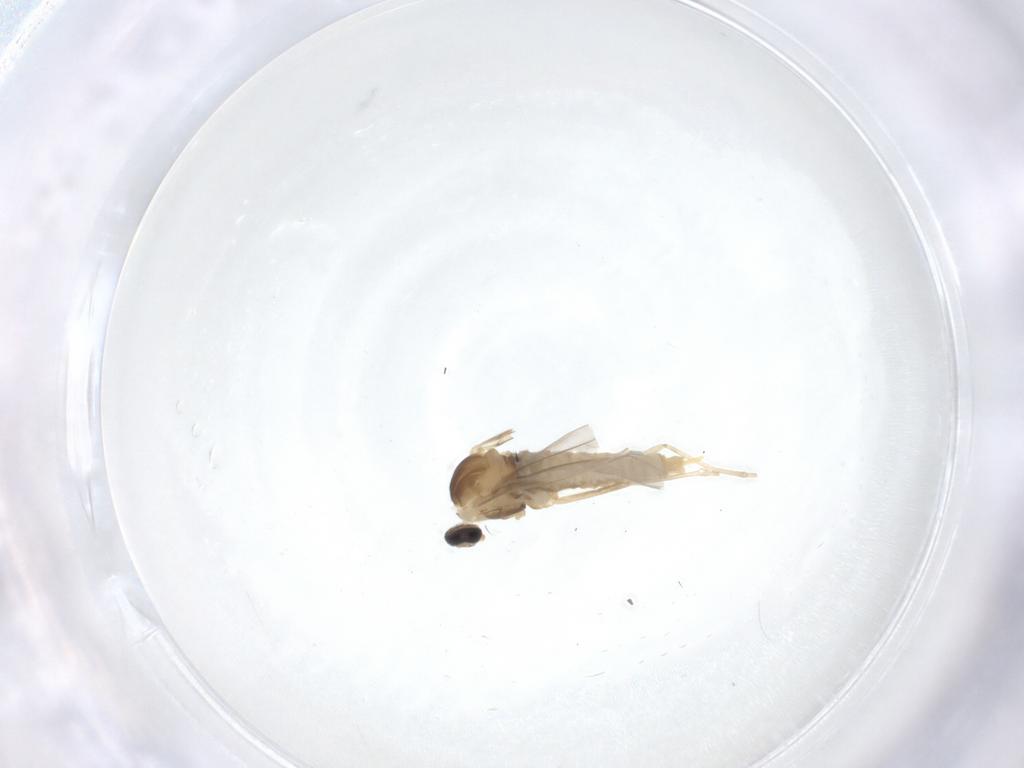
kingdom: Animalia
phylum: Arthropoda
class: Insecta
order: Diptera
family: Cecidomyiidae
